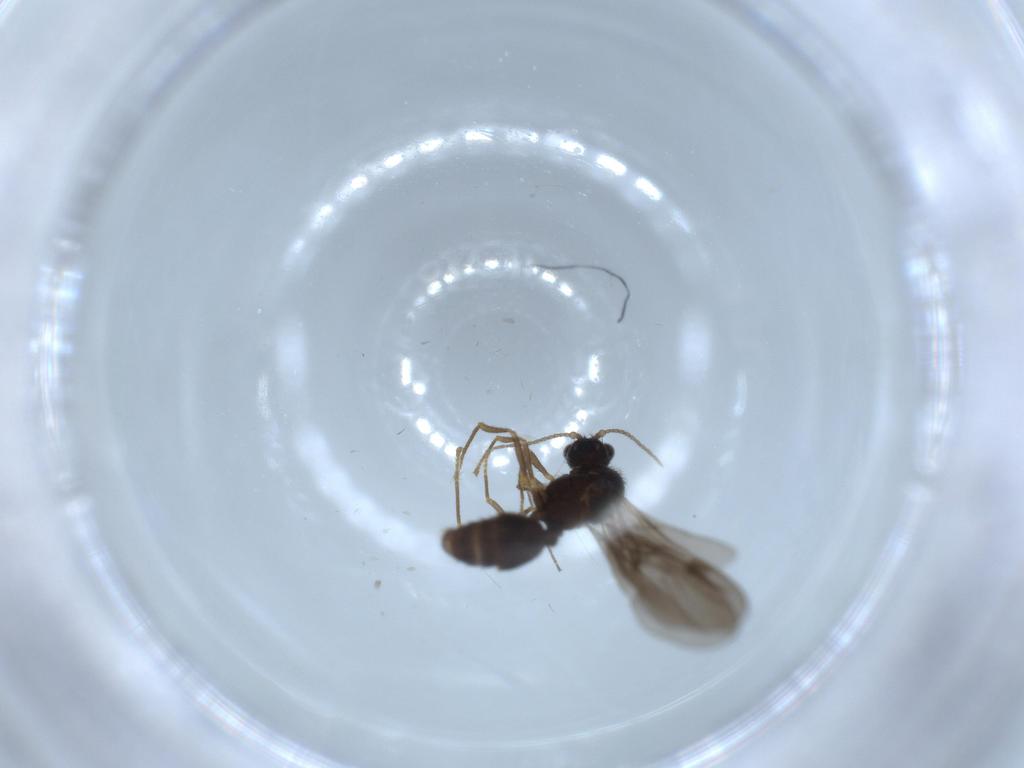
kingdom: Animalia
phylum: Arthropoda
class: Insecta
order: Hymenoptera
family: Formicidae
